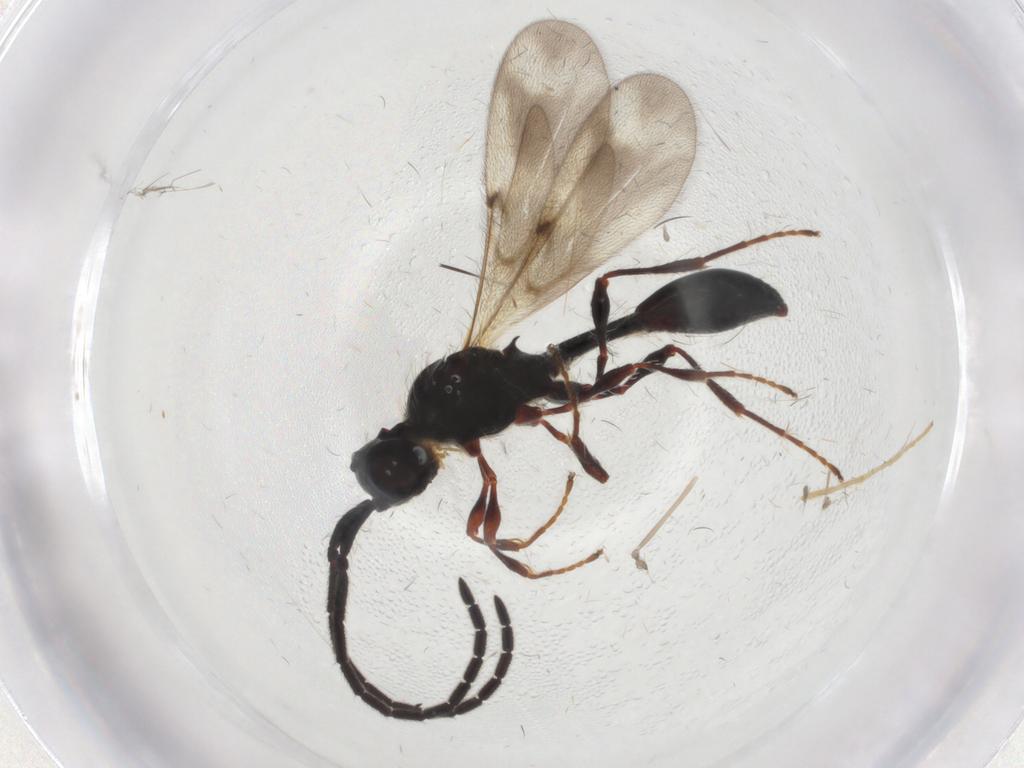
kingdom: Animalia
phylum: Arthropoda
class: Insecta
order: Hymenoptera
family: Diapriidae
